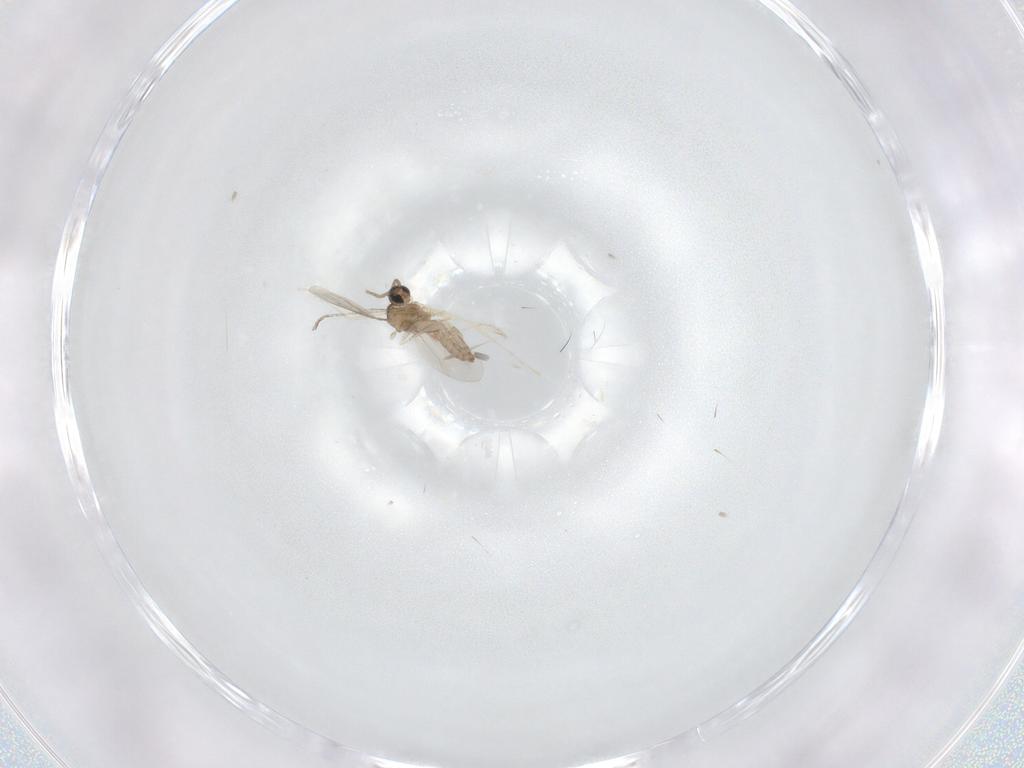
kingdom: Animalia
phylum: Arthropoda
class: Insecta
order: Diptera
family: Cecidomyiidae
